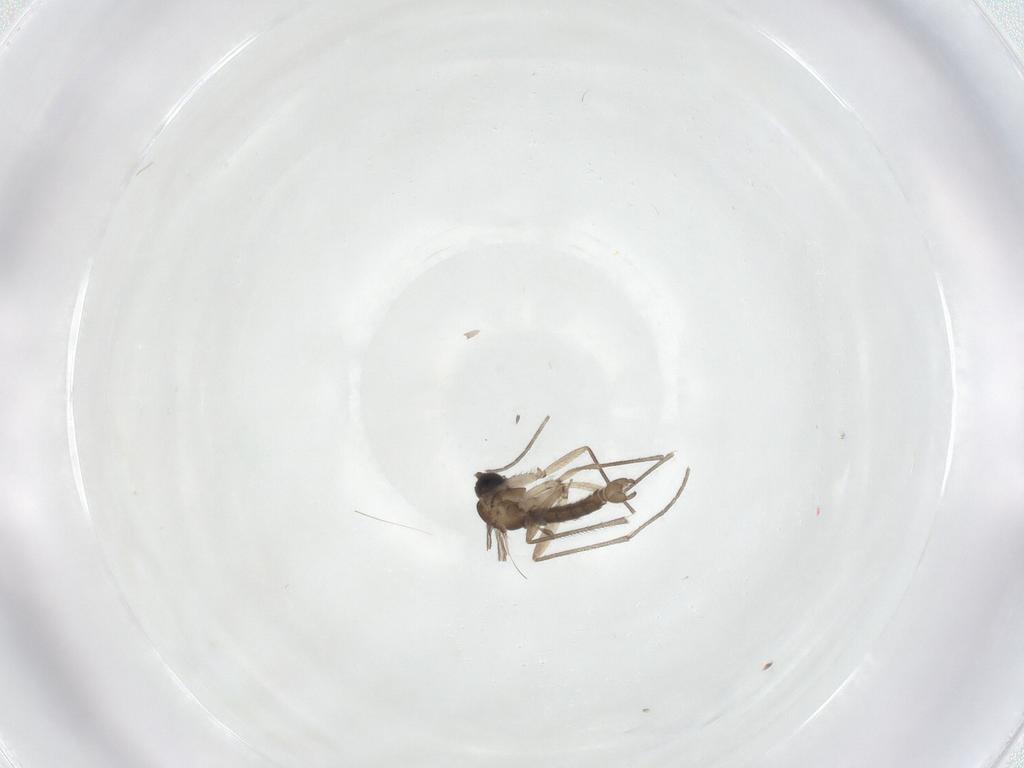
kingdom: Animalia
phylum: Arthropoda
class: Insecta
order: Diptera
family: Sciaridae
